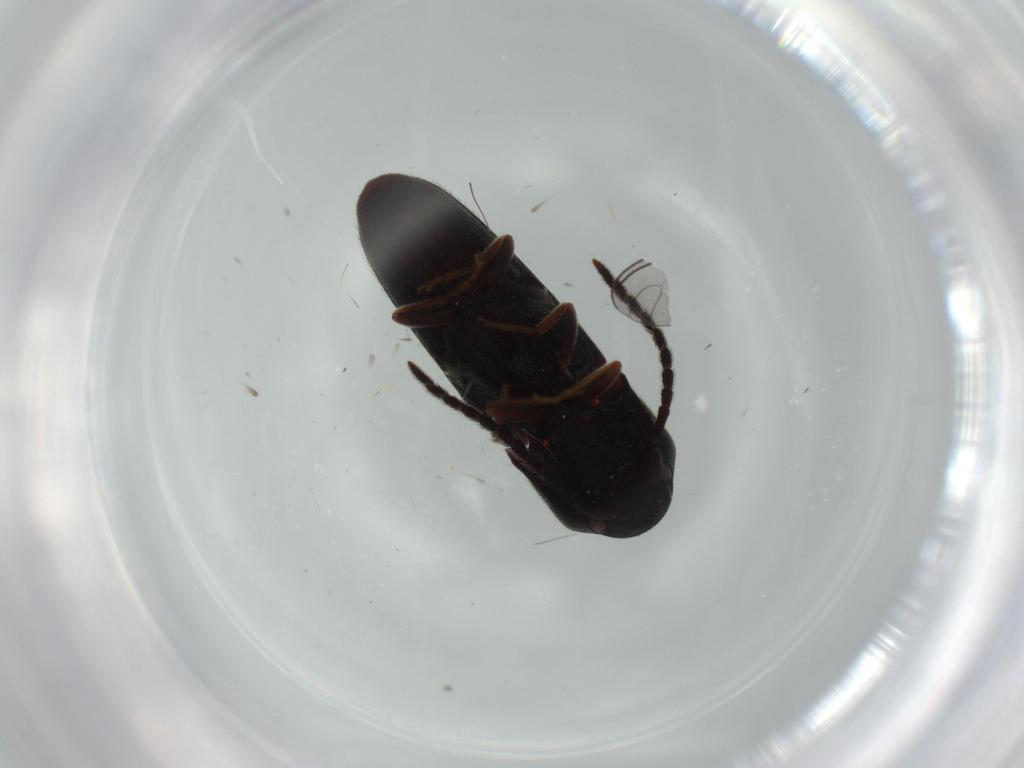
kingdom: Animalia
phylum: Arthropoda
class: Insecta
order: Coleoptera
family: Eucnemidae
